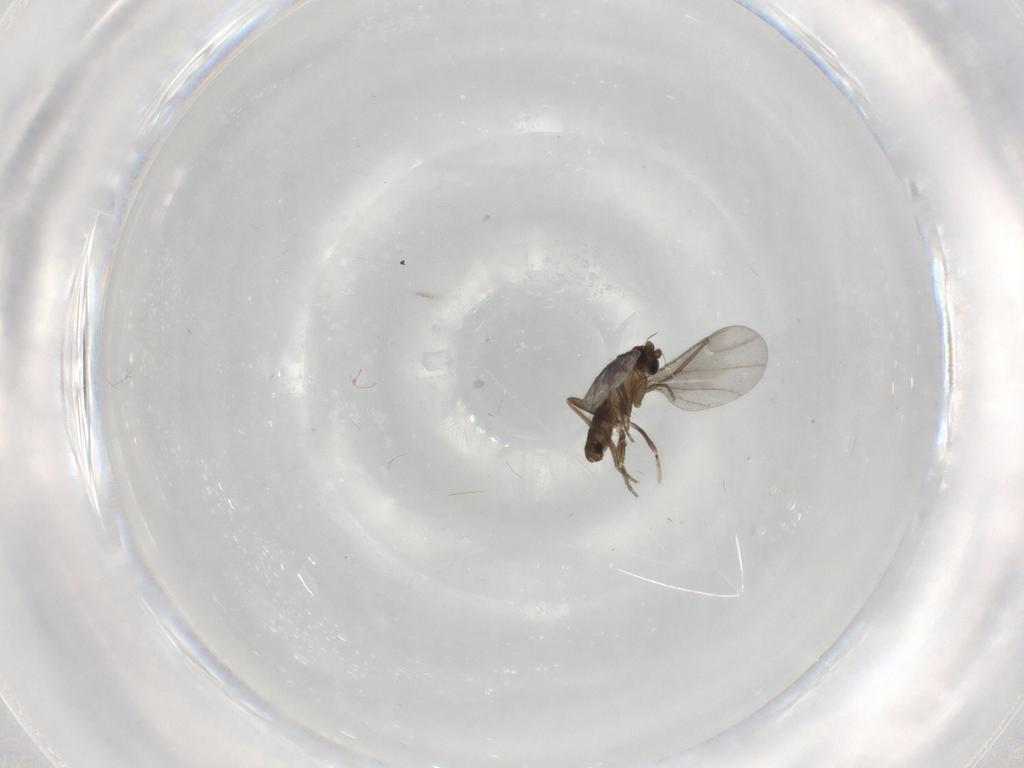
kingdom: Animalia
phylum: Arthropoda
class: Insecta
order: Diptera
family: Phoridae
